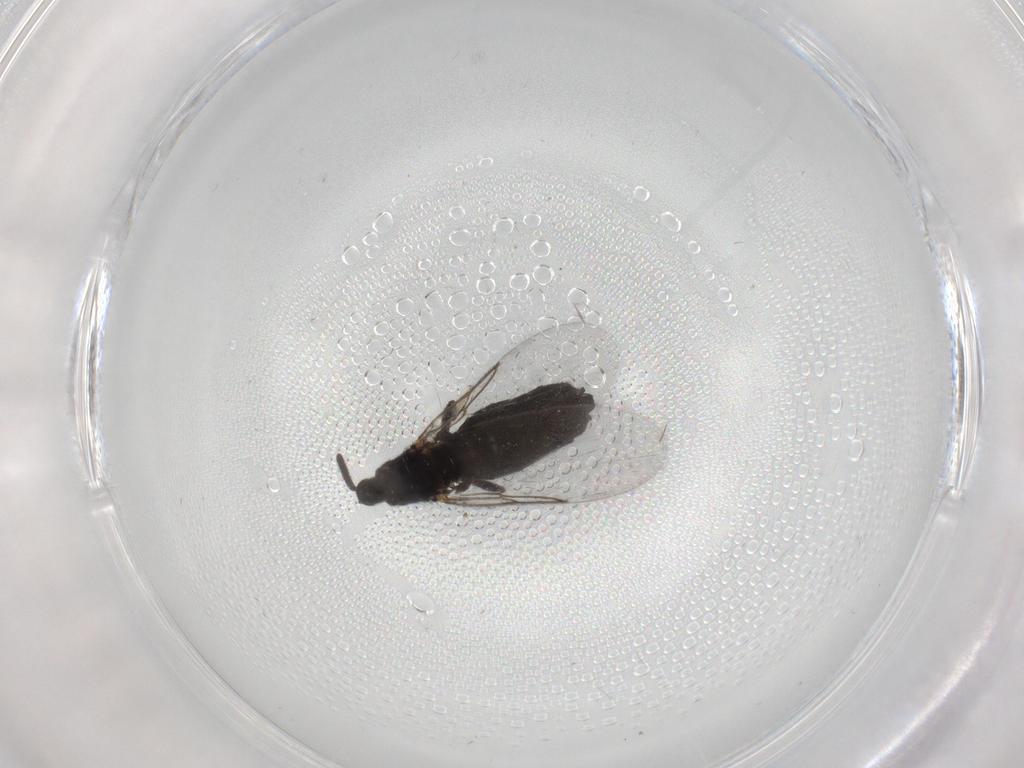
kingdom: Animalia
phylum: Arthropoda
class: Insecta
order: Diptera
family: Scatopsidae
